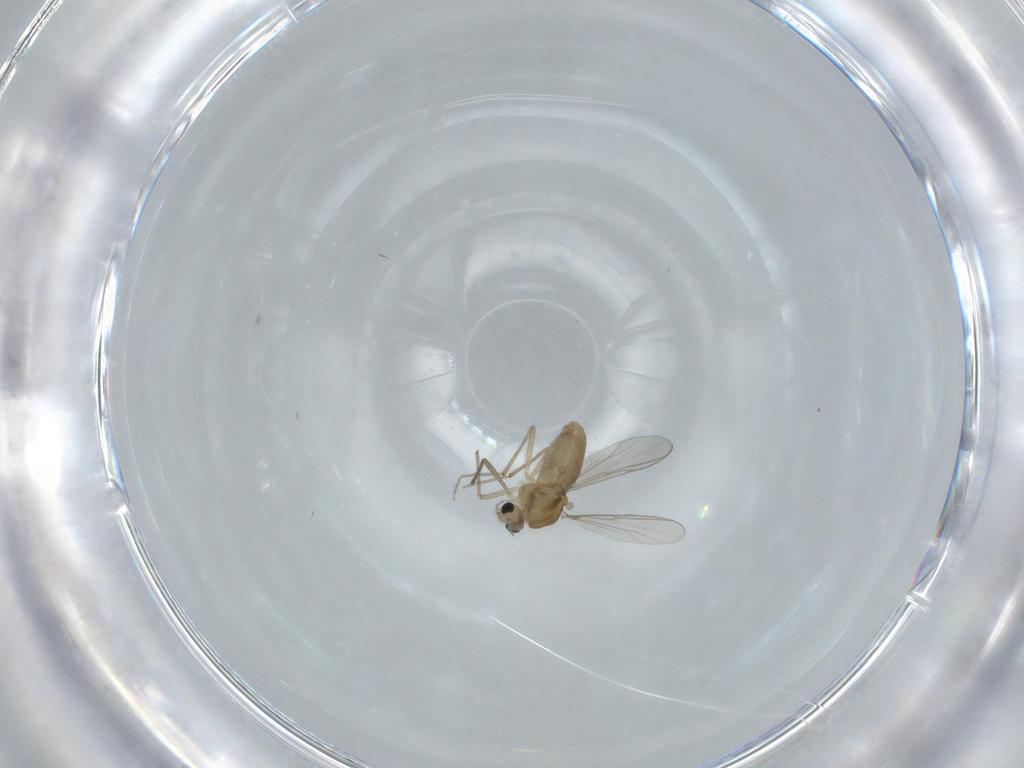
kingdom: Animalia
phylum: Arthropoda
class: Insecta
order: Diptera
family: Chironomidae
